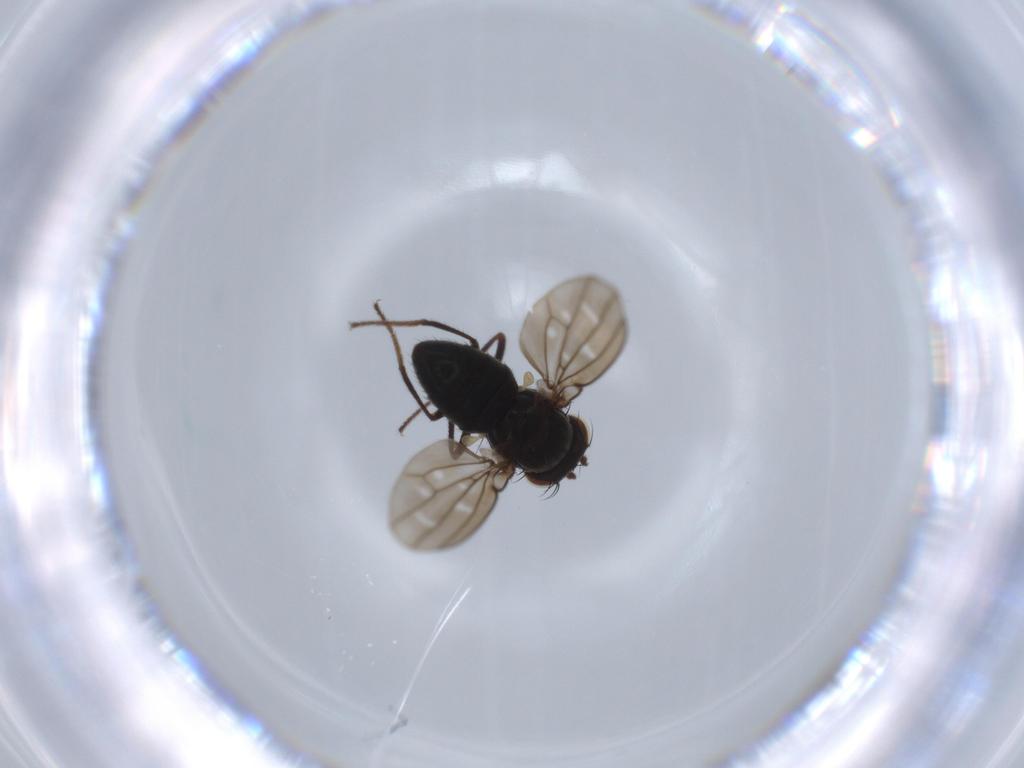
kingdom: Animalia
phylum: Arthropoda
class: Insecta
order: Diptera
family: Ephydridae
